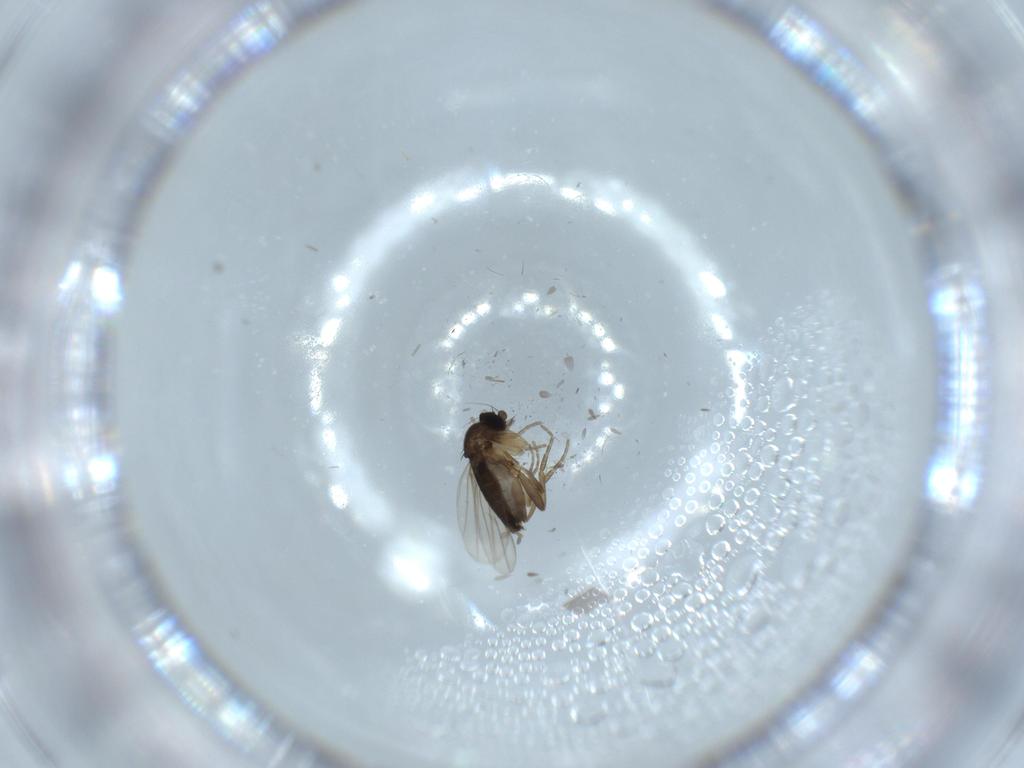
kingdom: Animalia
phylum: Arthropoda
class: Insecta
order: Diptera
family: Phoridae
